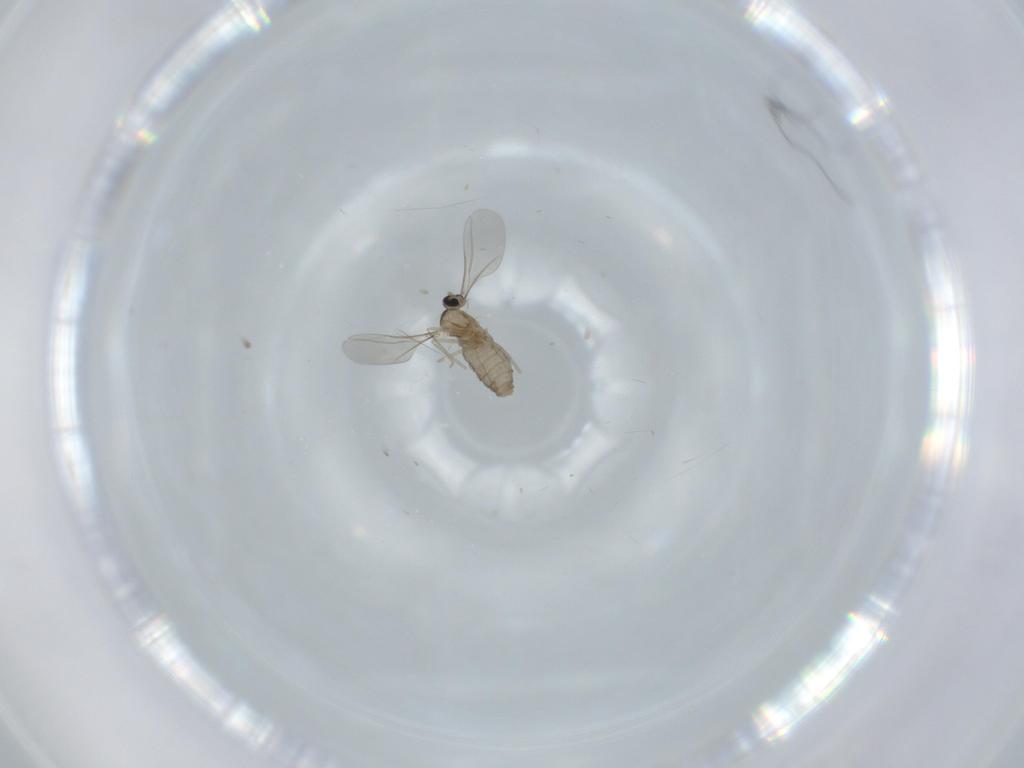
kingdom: Animalia
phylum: Arthropoda
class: Insecta
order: Diptera
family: Cecidomyiidae
